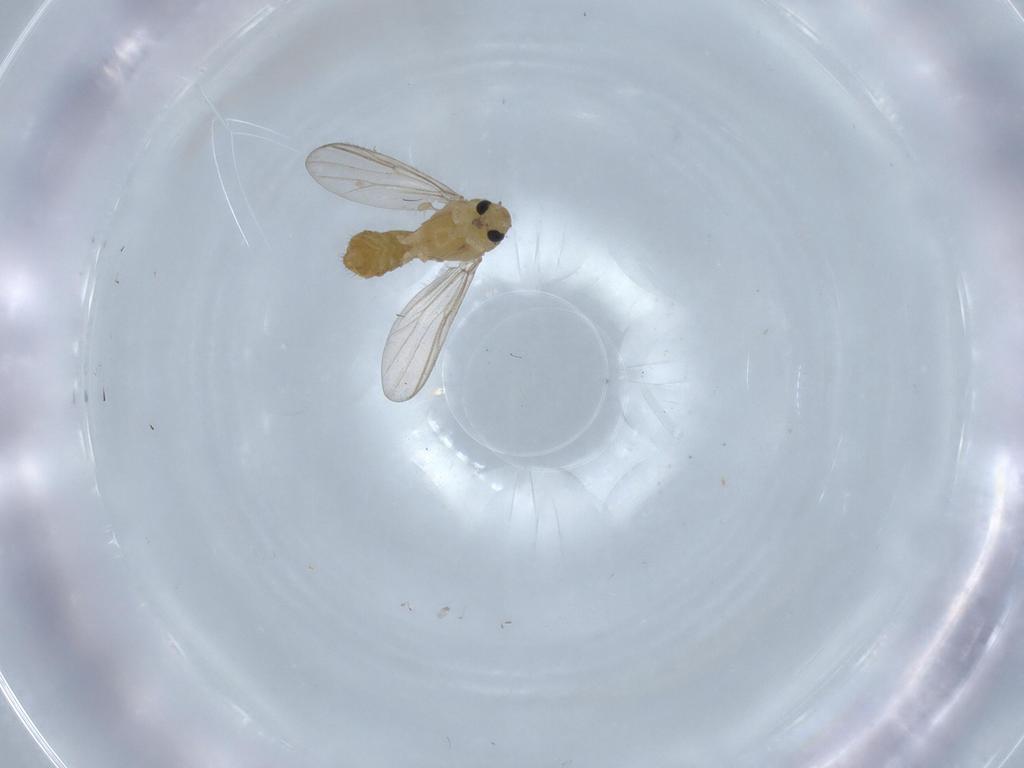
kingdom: Animalia
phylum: Arthropoda
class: Insecta
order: Diptera
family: Cecidomyiidae
